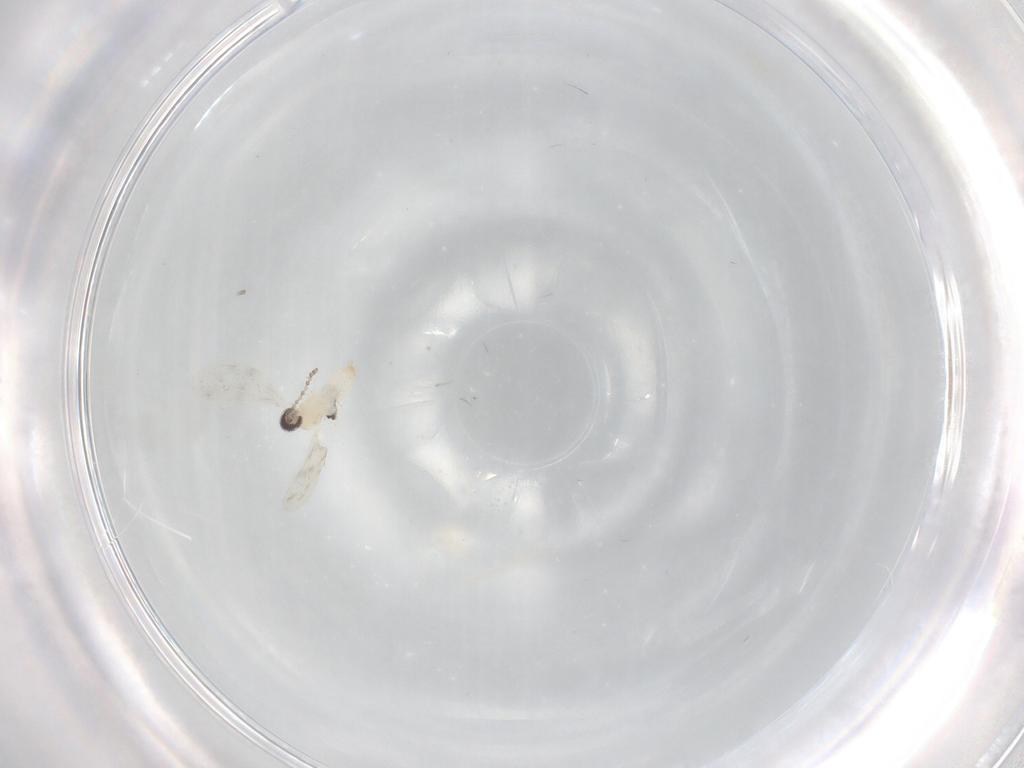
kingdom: Animalia
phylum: Arthropoda
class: Insecta
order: Diptera
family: Cecidomyiidae
